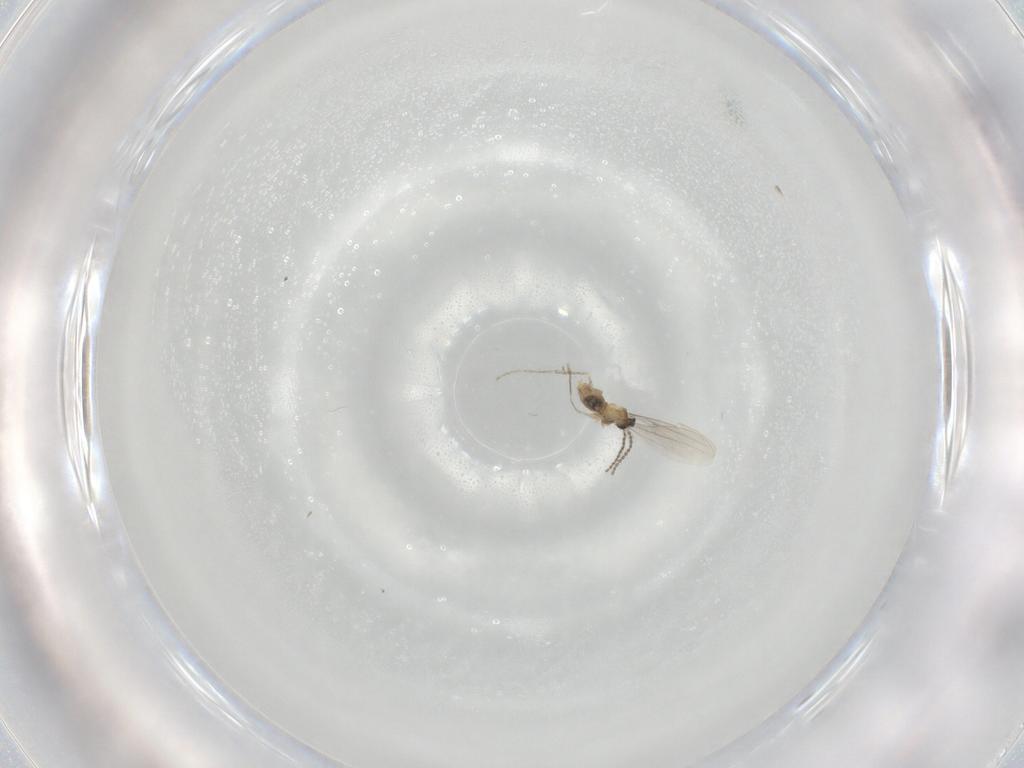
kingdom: Animalia
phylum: Arthropoda
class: Insecta
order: Diptera
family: Cecidomyiidae
